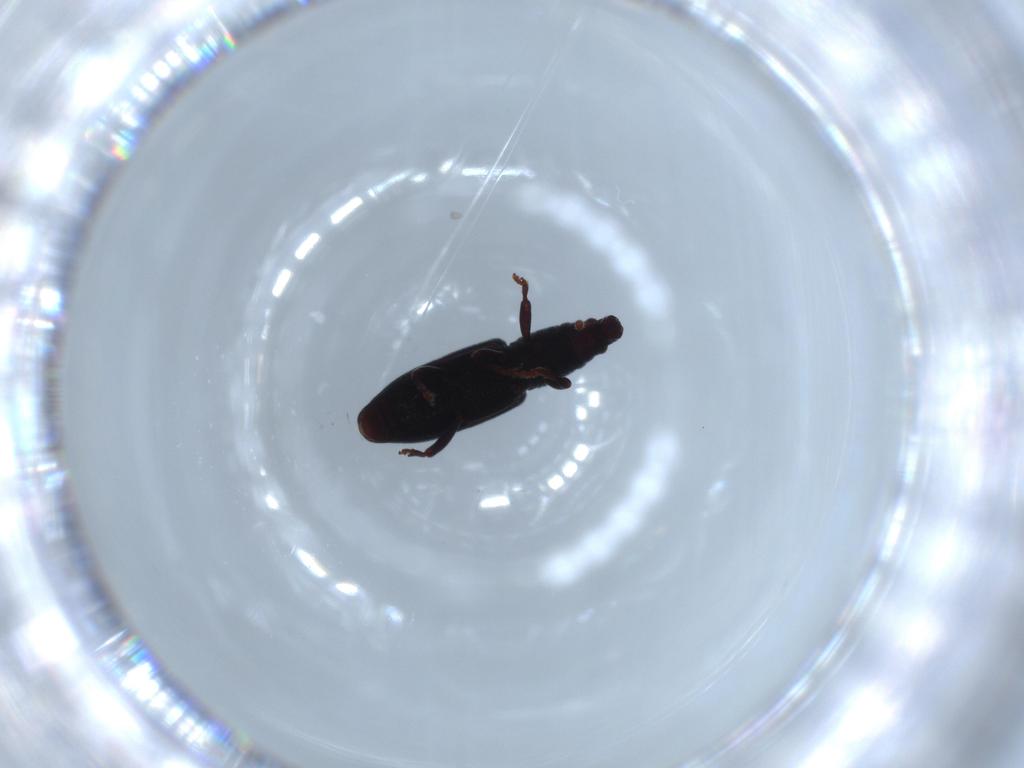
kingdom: Animalia
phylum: Arthropoda
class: Insecta
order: Coleoptera
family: Curculionidae
